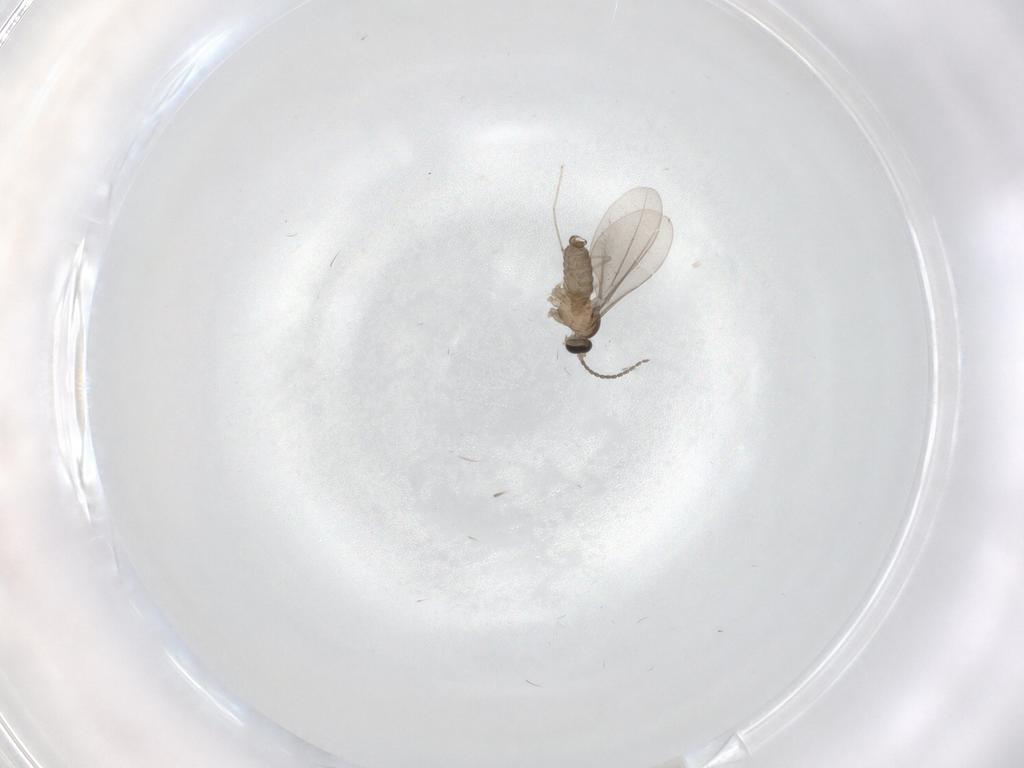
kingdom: Animalia
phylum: Arthropoda
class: Insecta
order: Diptera
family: Cecidomyiidae
